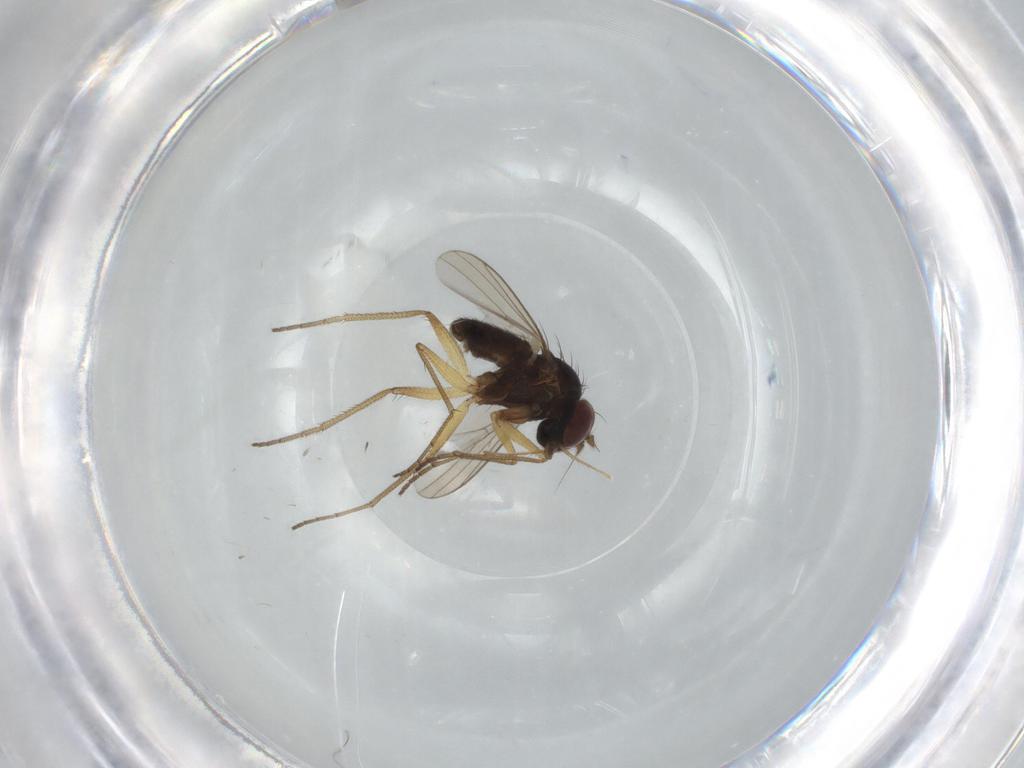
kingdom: Animalia
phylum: Arthropoda
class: Insecta
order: Diptera
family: Dolichopodidae
